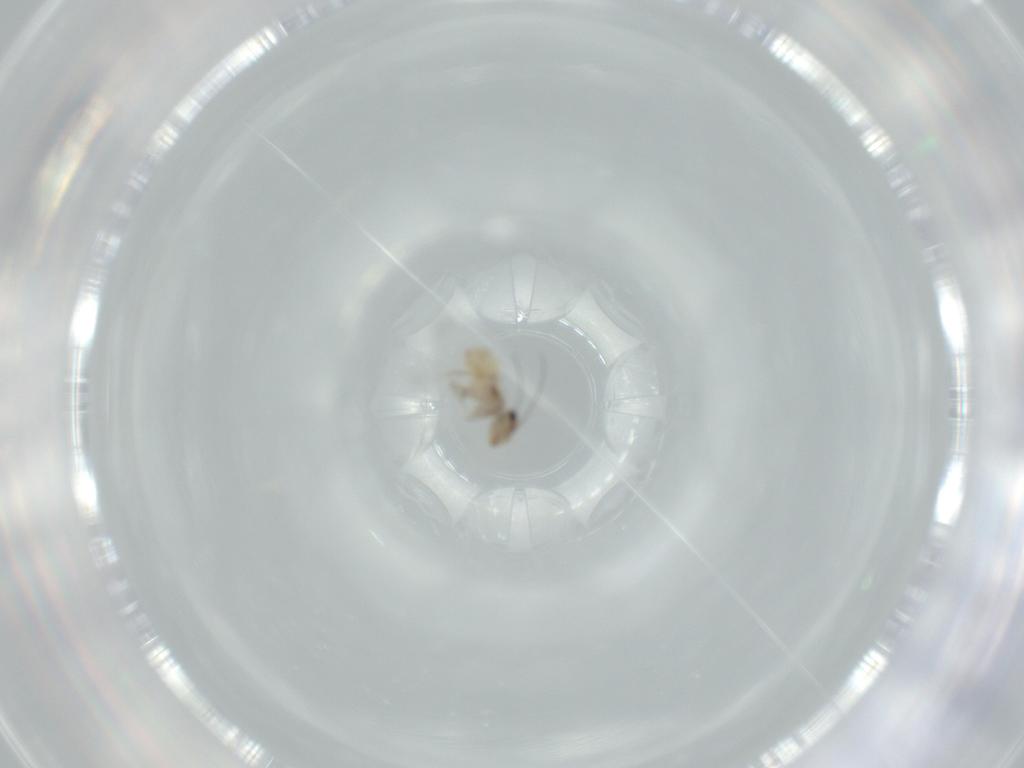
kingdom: Animalia
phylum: Arthropoda
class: Insecta
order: Psocodea
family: Lepidopsocidae
